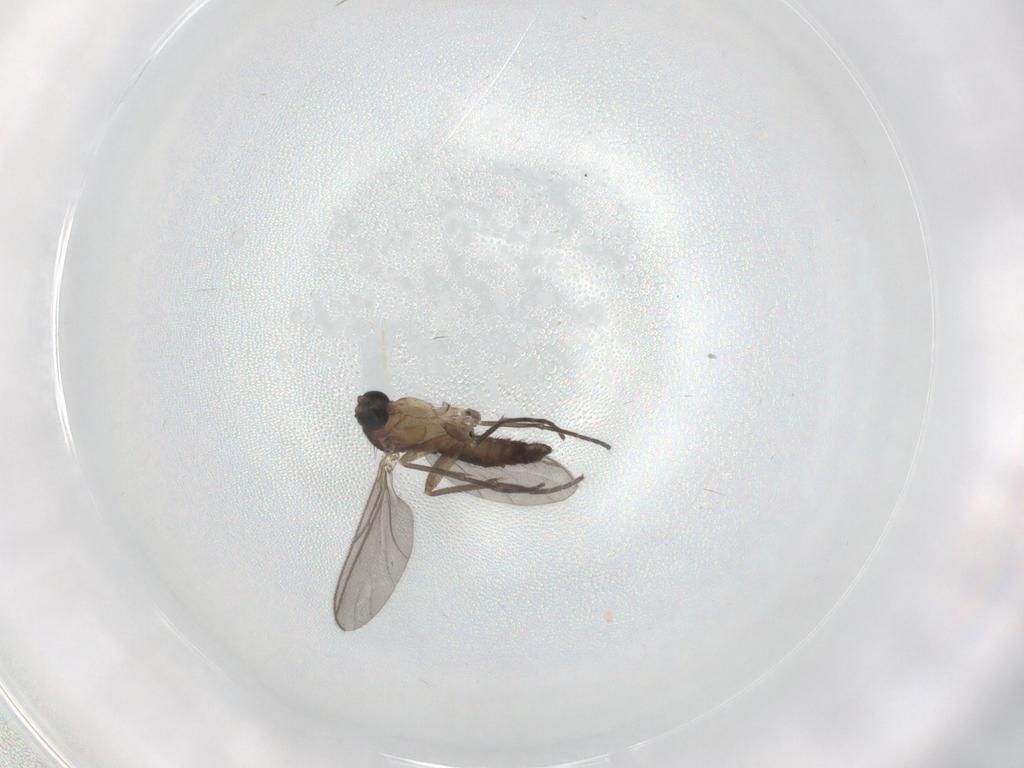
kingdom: Animalia
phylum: Arthropoda
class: Insecta
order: Diptera
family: Sciaridae
